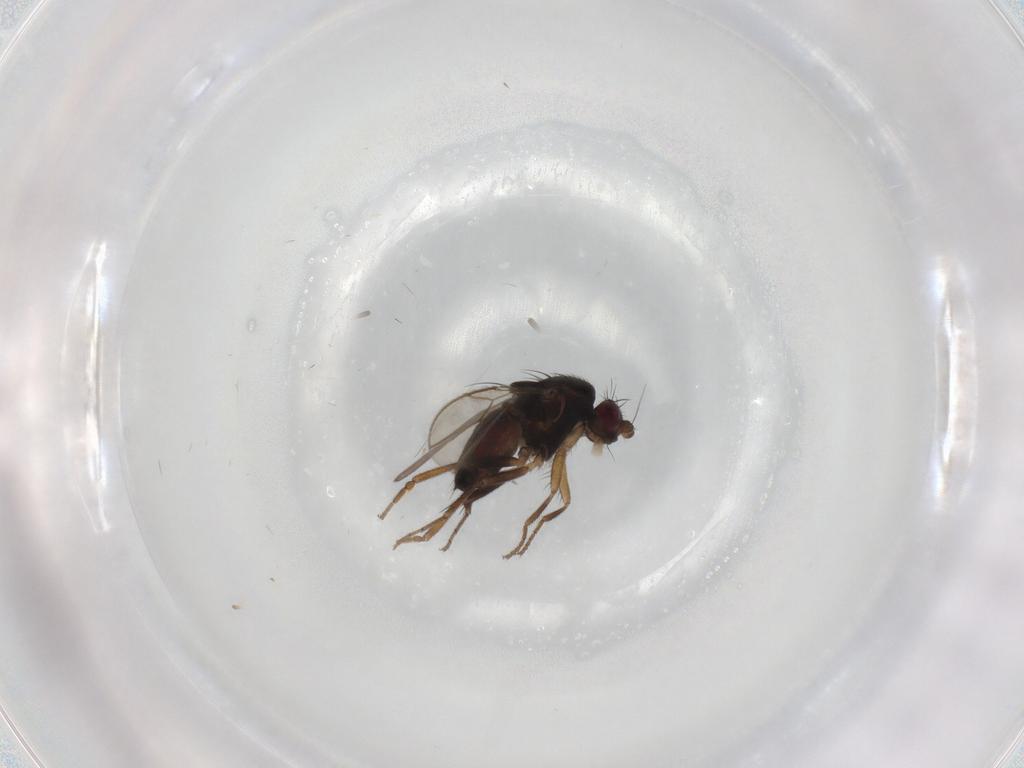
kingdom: Animalia
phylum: Arthropoda
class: Insecta
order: Diptera
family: Sphaeroceridae
